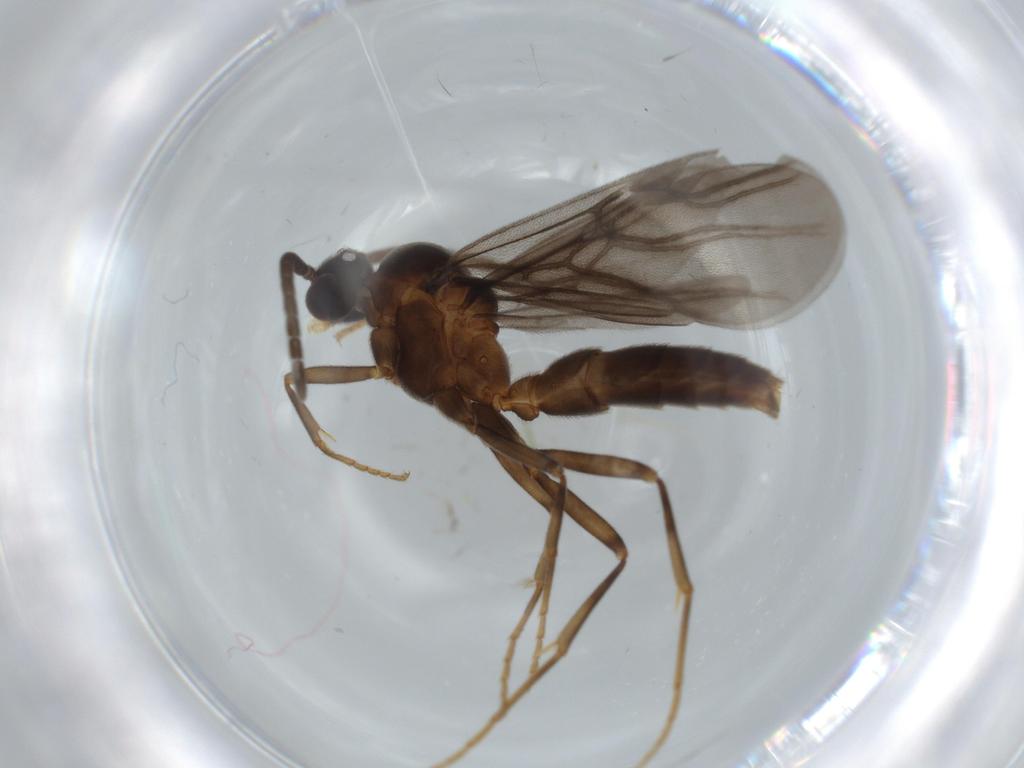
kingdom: Animalia
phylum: Arthropoda
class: Insecta
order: Hymenoptera
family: Formicidae
